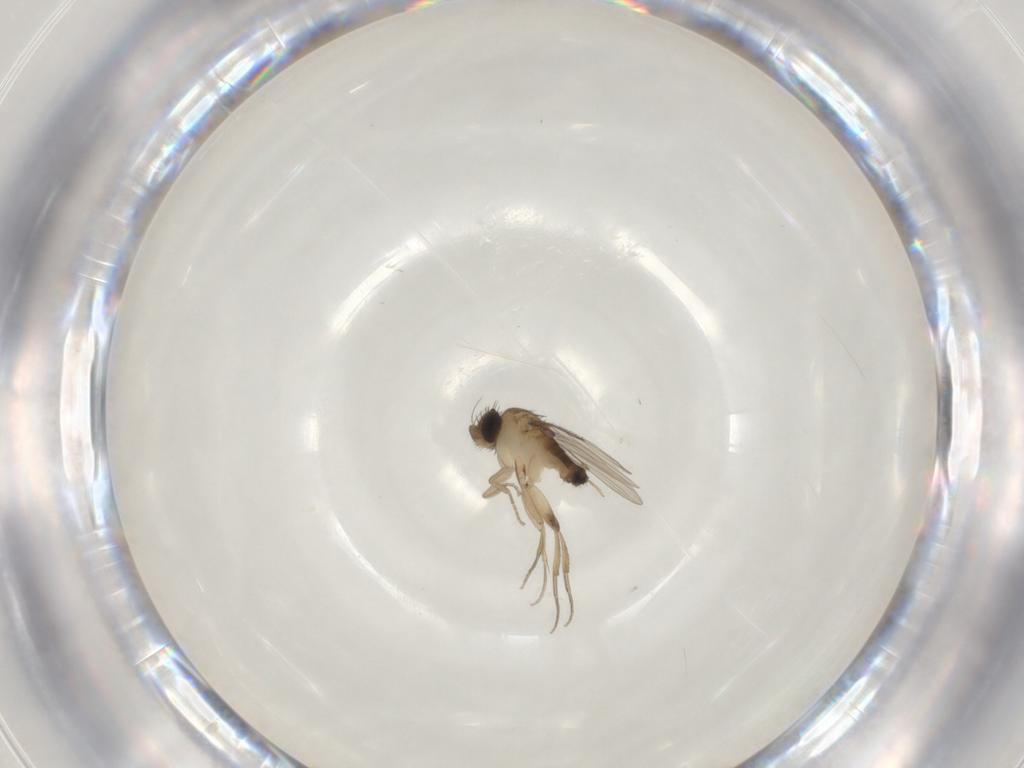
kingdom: Animalia
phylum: Arthropoda
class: Insecta
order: Diptera
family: Phoridae
